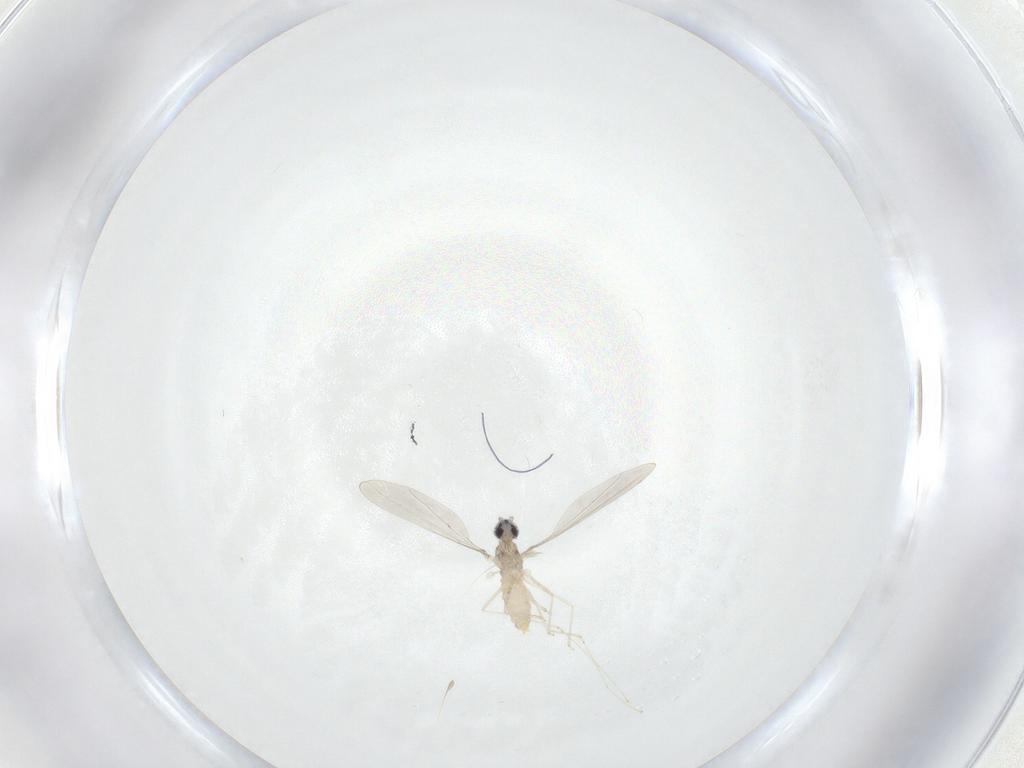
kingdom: Animalia
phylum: Arthropoda
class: Insecta
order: Diptera
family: Cecidomyiidae
